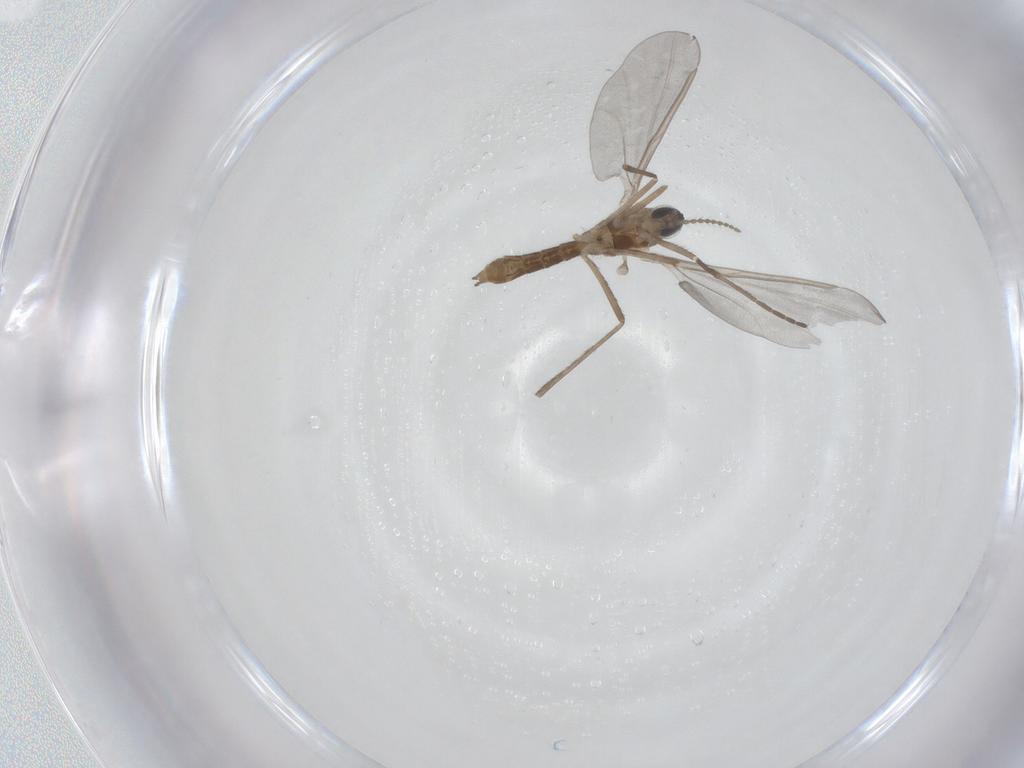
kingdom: Animalia
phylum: Arthropoda
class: Insecta
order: Diptera
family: Cecidomyiidae
